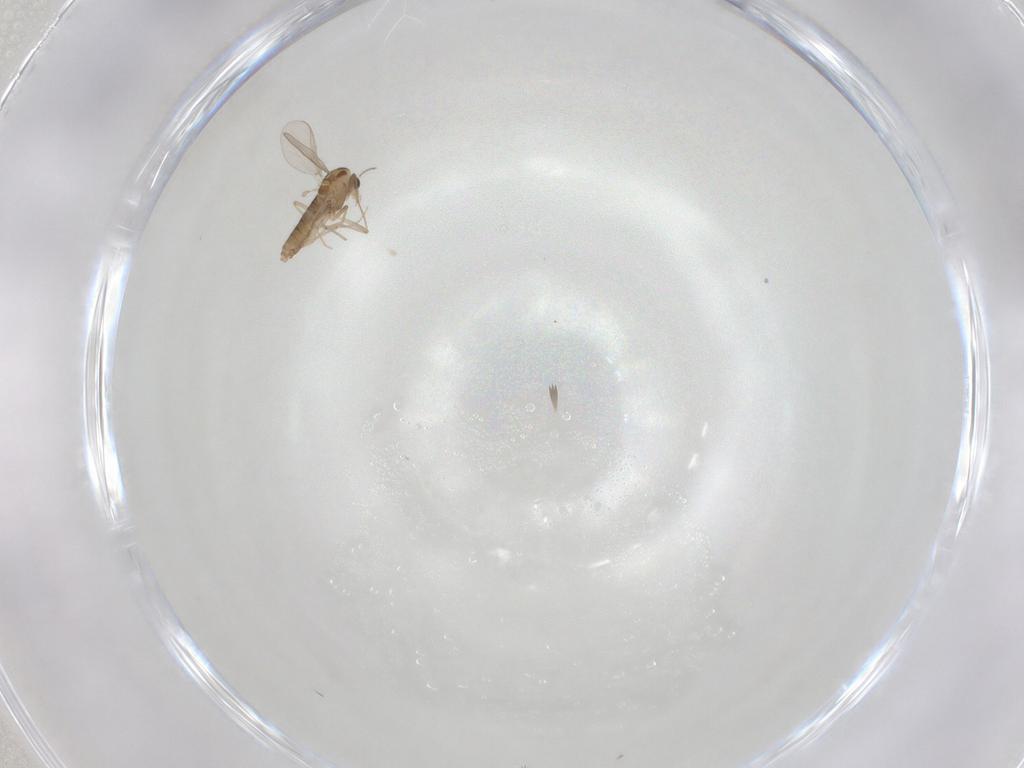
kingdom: Animalia
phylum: Arthropoda
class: Insecta
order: Diptera
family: Chironomidae
